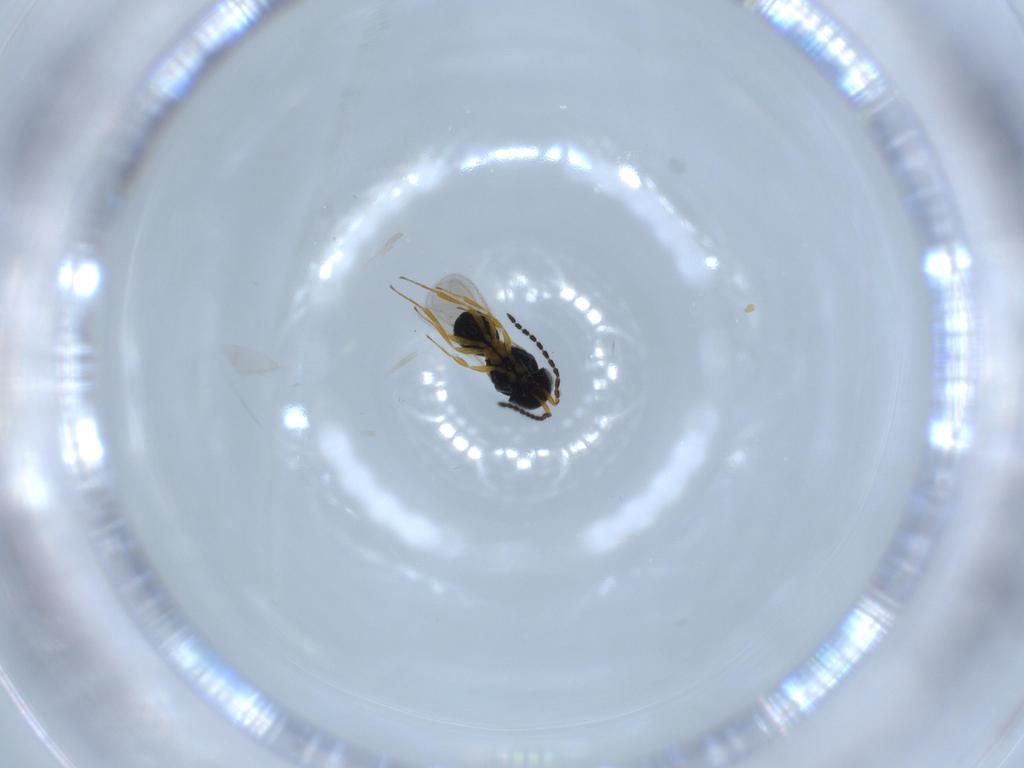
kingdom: Animalia
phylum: Arthropoda
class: Insecta
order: Hymenoptera
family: Scelionidae
